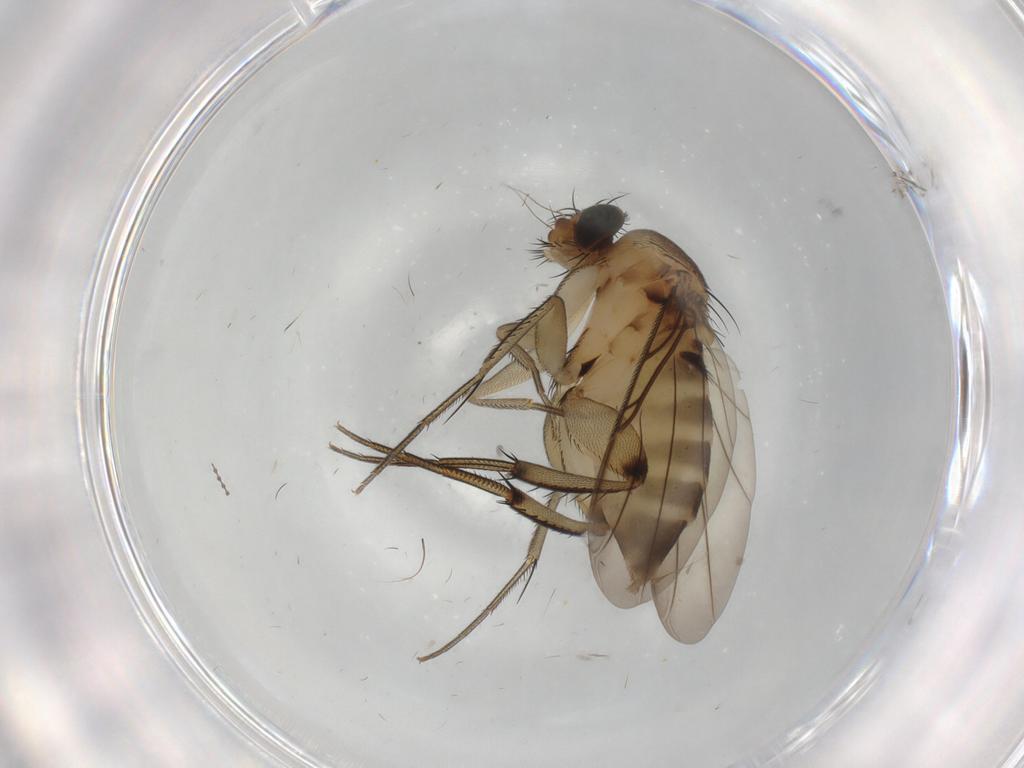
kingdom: Animalia
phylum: Arthropoda
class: Insecta
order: Diptera
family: Phoridae
